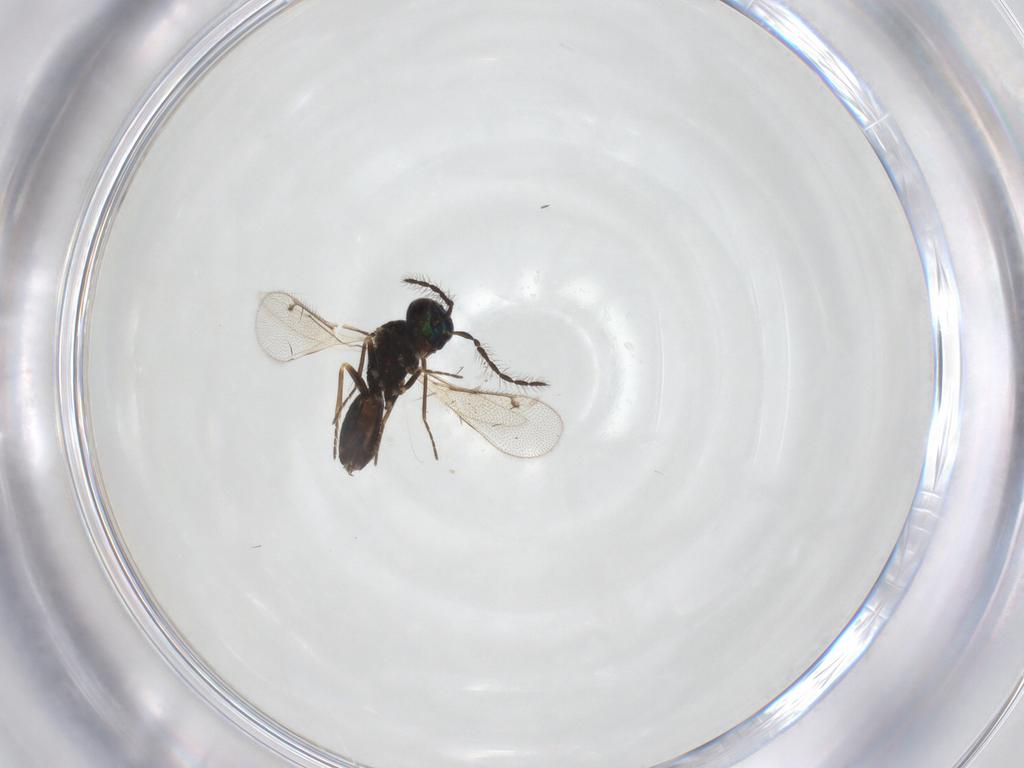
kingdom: Animalia
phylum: Arthropoda
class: Insecta
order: Hymenoptera
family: Eulophidae
